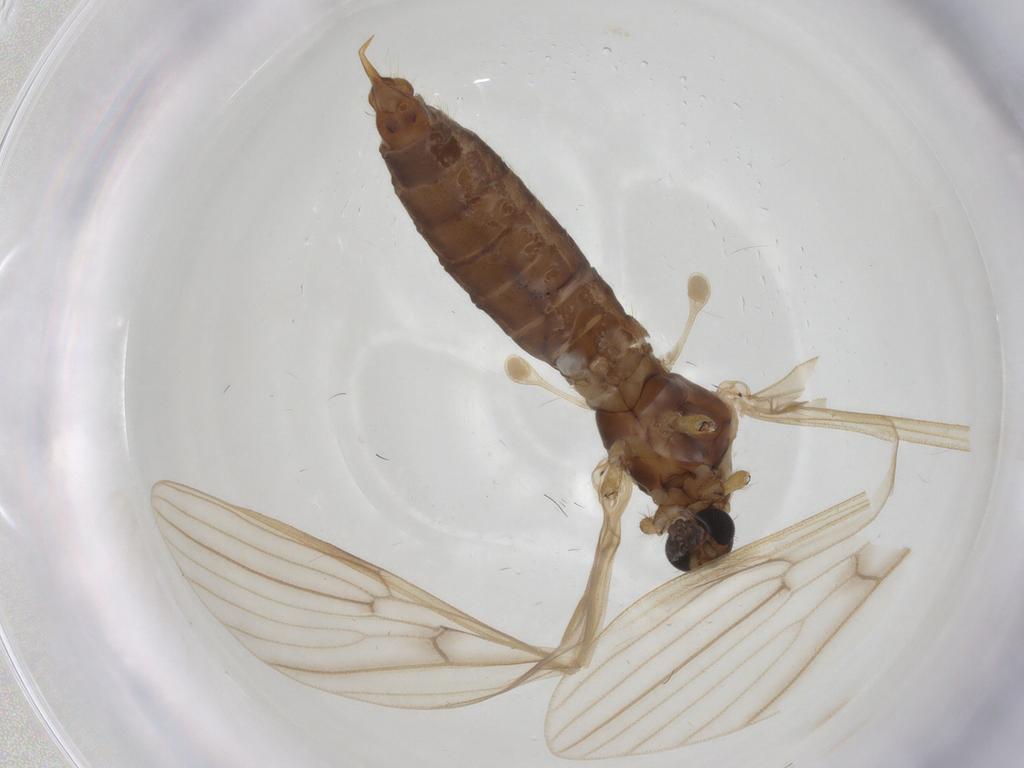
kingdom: Animalia
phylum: Arthropoda
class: Insecta
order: Diptera
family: Limoniidae
